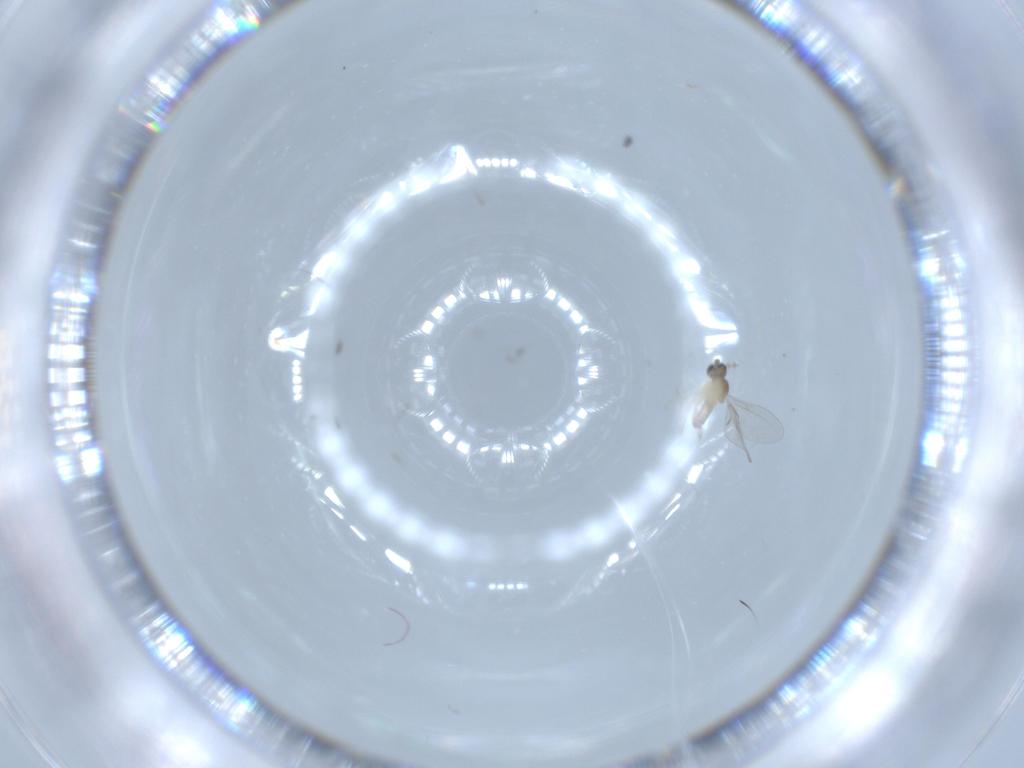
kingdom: Animalia
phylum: Arthropoda
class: Insecta
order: Diptera
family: Cecidomyiidae
